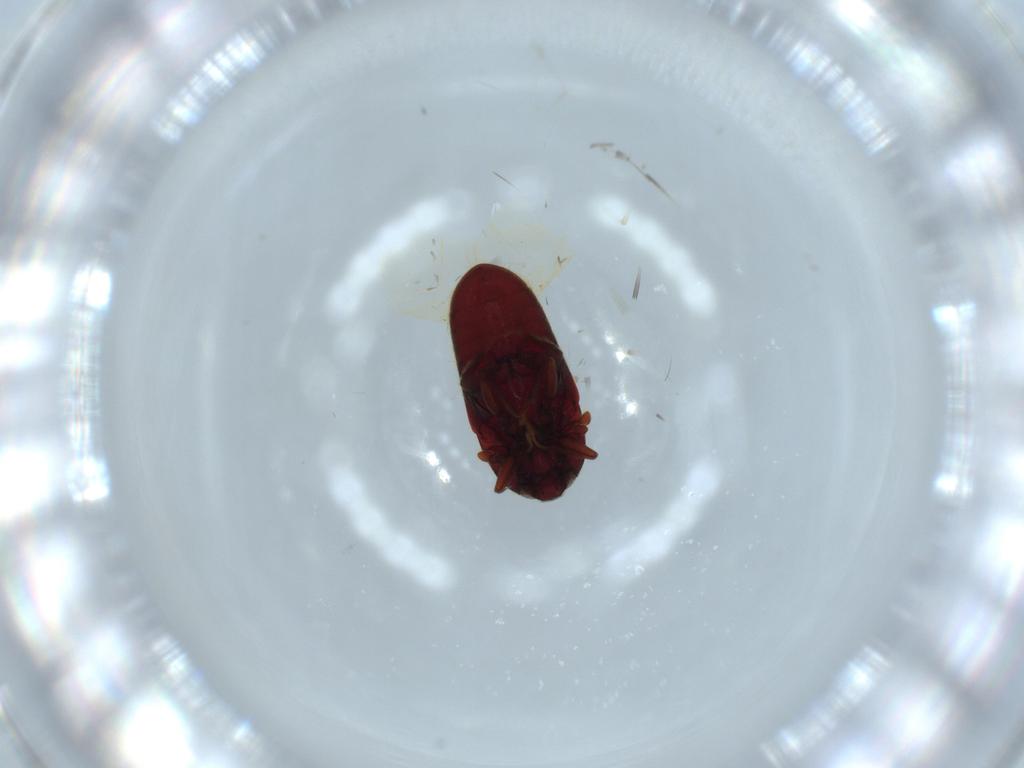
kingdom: Animalia
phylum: Arthropoda
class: Insecta
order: Coleoptera
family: Throscidae
